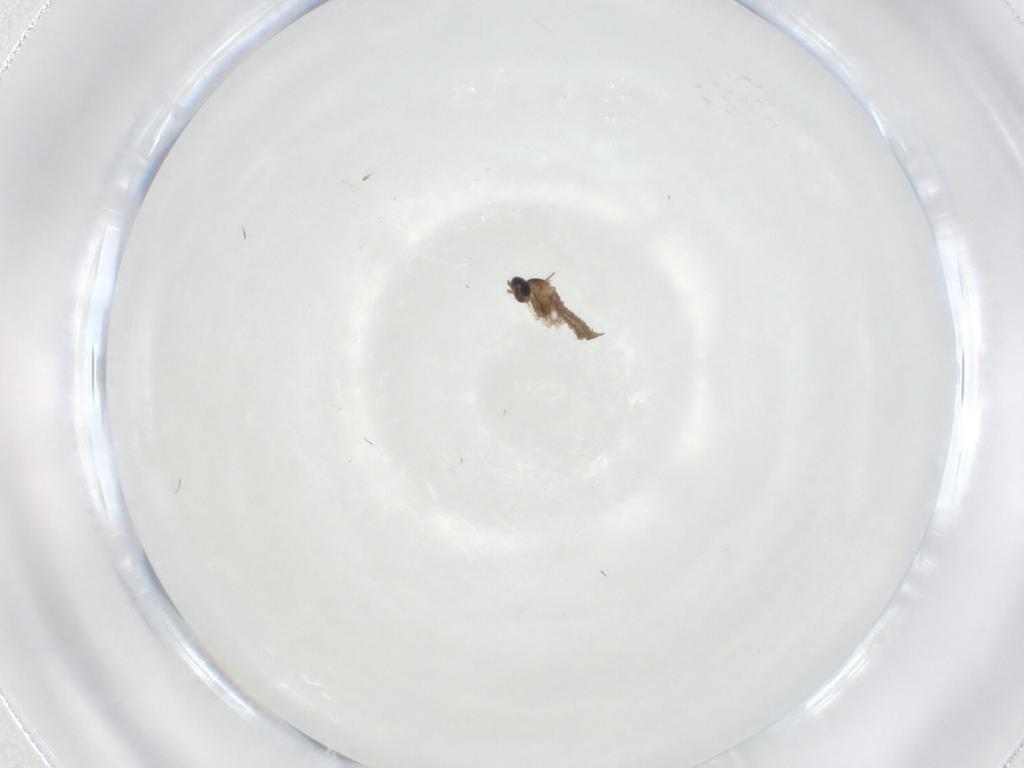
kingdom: Animalia
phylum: Arthropoda
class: Insecta
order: Diptera
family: Cecidomyiidae
